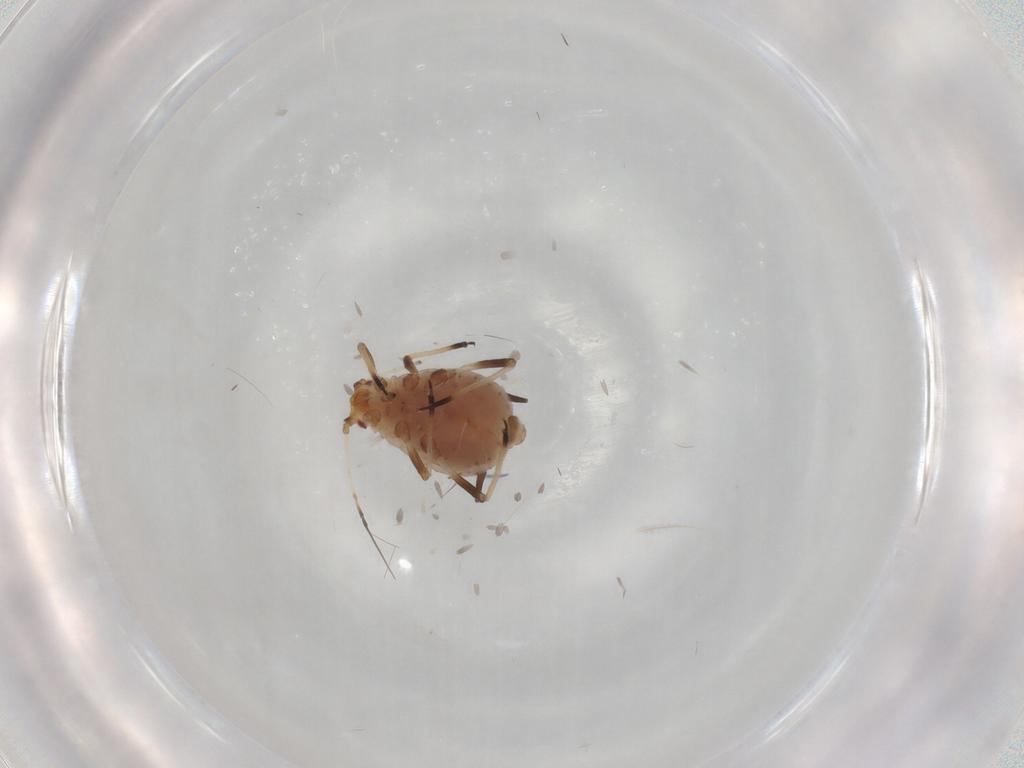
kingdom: Animalia
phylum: Arthropoda
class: Insecta
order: Hemiptera
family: Aphididae
